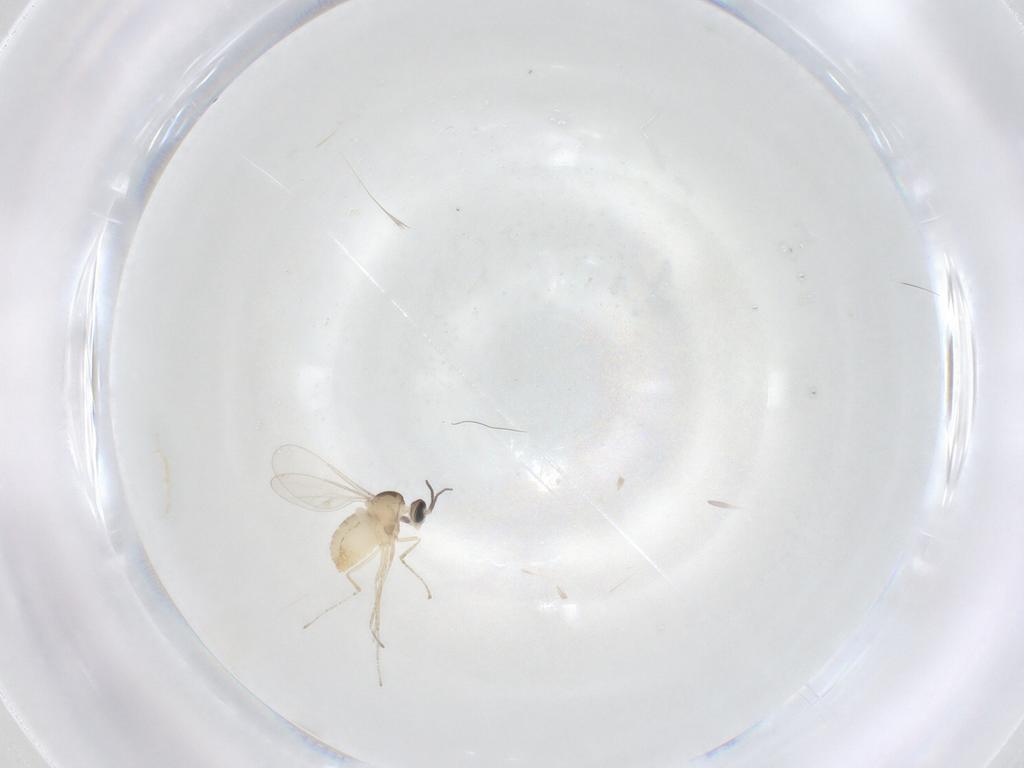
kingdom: Animalia
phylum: Arthropoda
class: Insecta
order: Diptera
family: Cecidomyiidae
